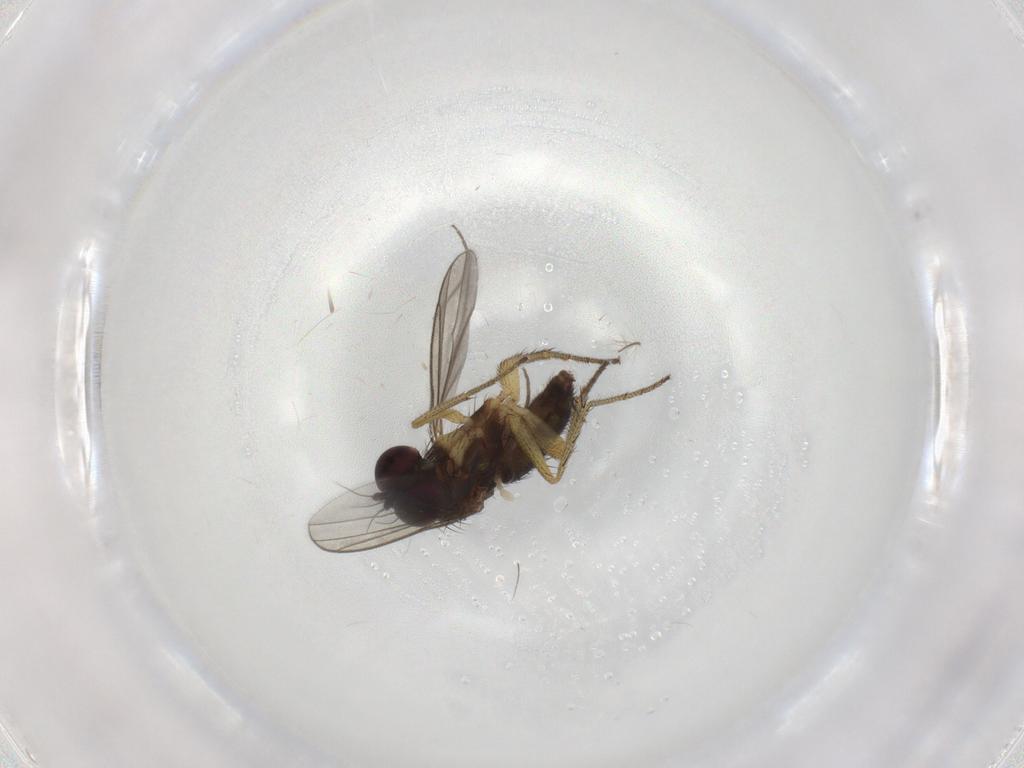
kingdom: Animalia
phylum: Arthropoda
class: Insecta
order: Diptera
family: Dolichopodidae
